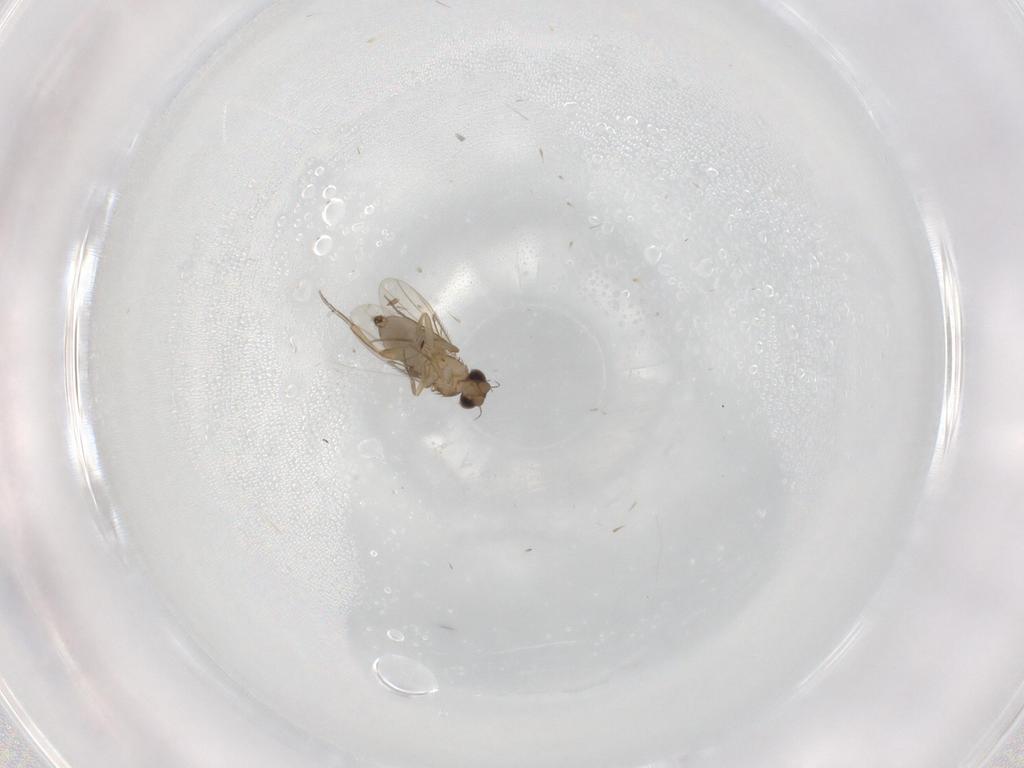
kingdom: Animalia
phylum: Arthropoda
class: Insecta
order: Diptera
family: Phoridae
